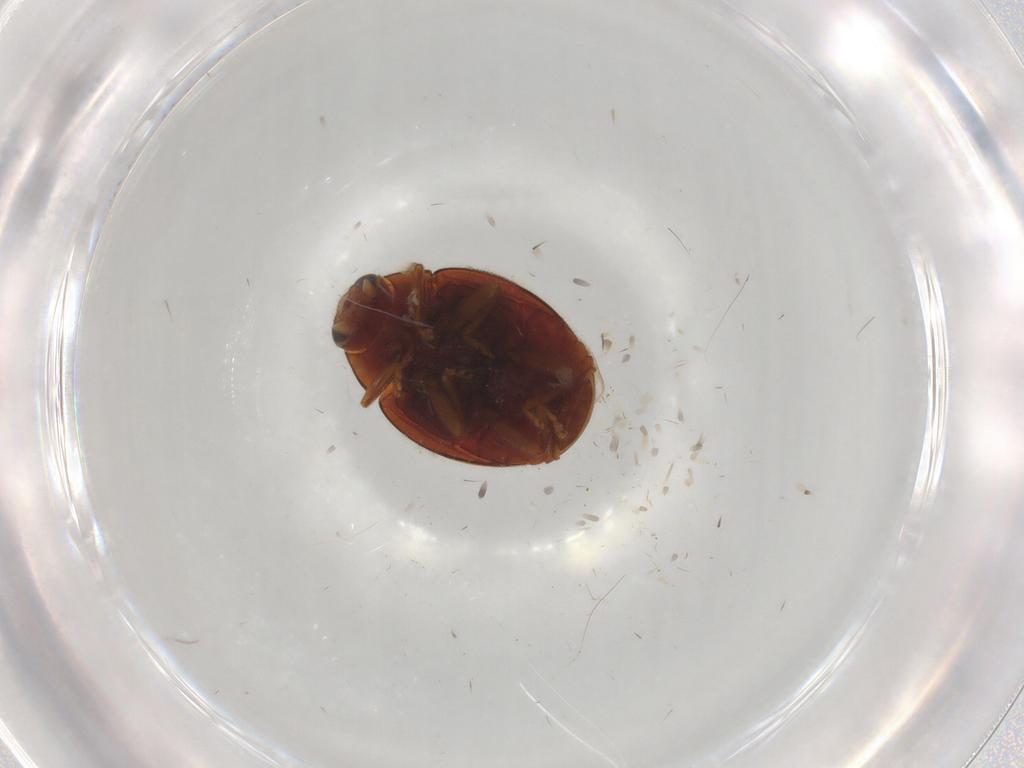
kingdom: Animalia
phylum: Arthropoda
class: Insecta
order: Coleoptera
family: Coccinellidae
